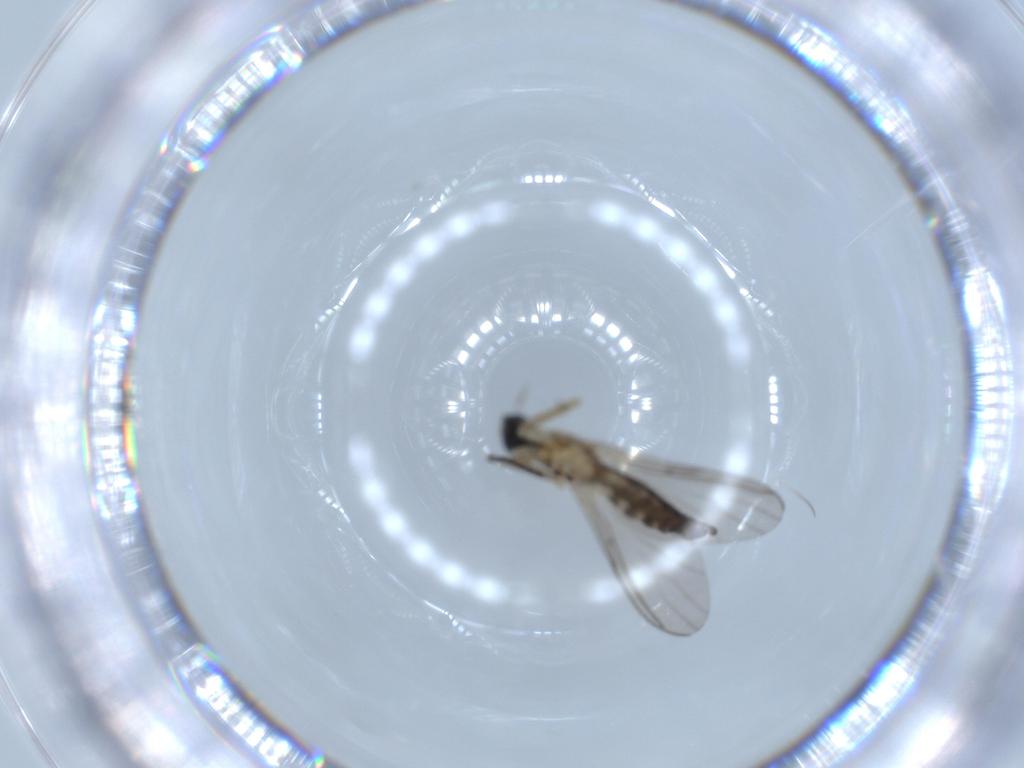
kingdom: Animalia
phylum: Arthropoda
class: Insecta
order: Diptera
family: Sciaridae
